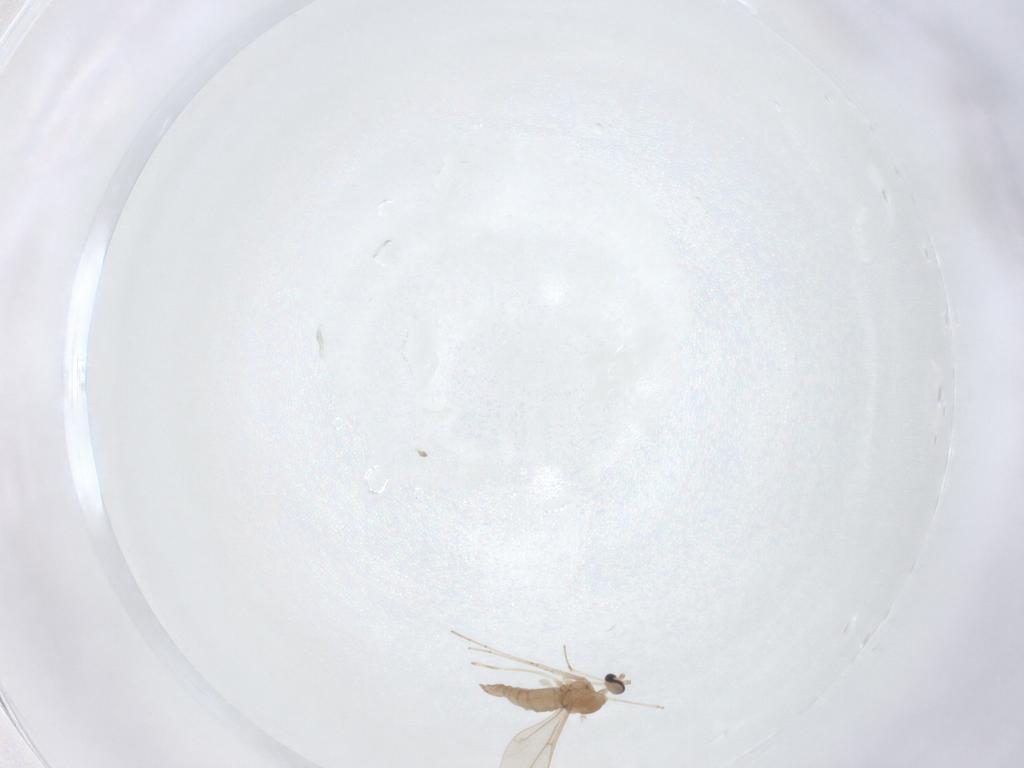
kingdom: Animalia
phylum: Arthropoda
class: Insecta
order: Diptera
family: Cecidomyiidae
